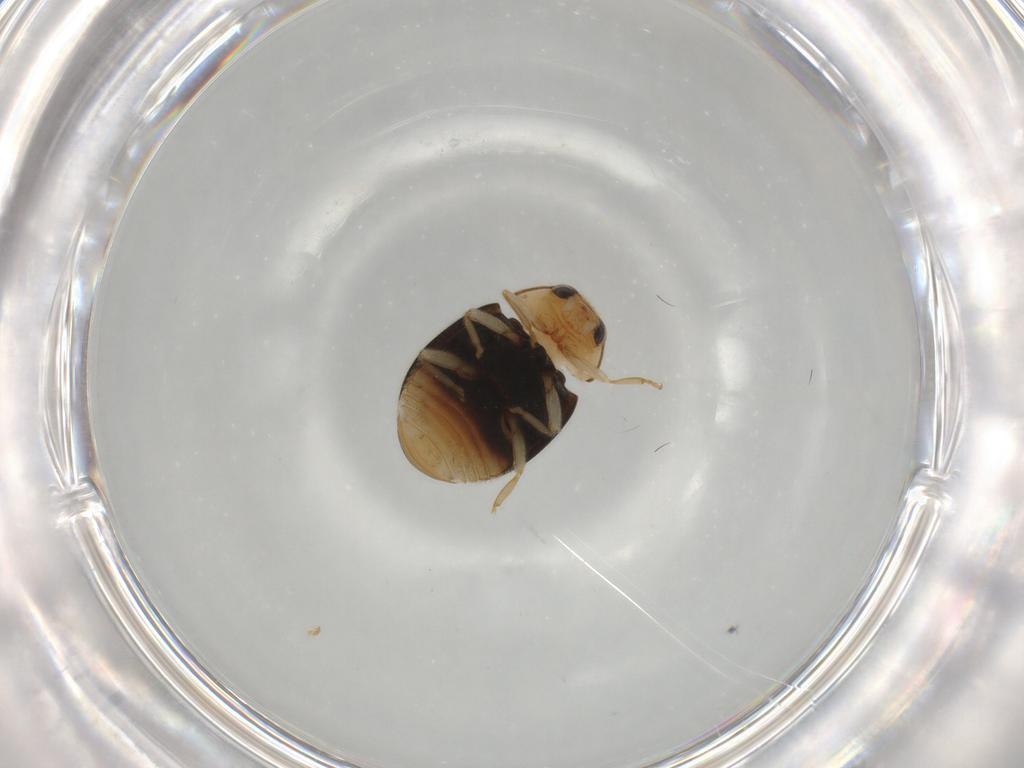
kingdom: Animalia
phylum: Arthropoda
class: Insecta
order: Coleoptera
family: Coccinellidae
